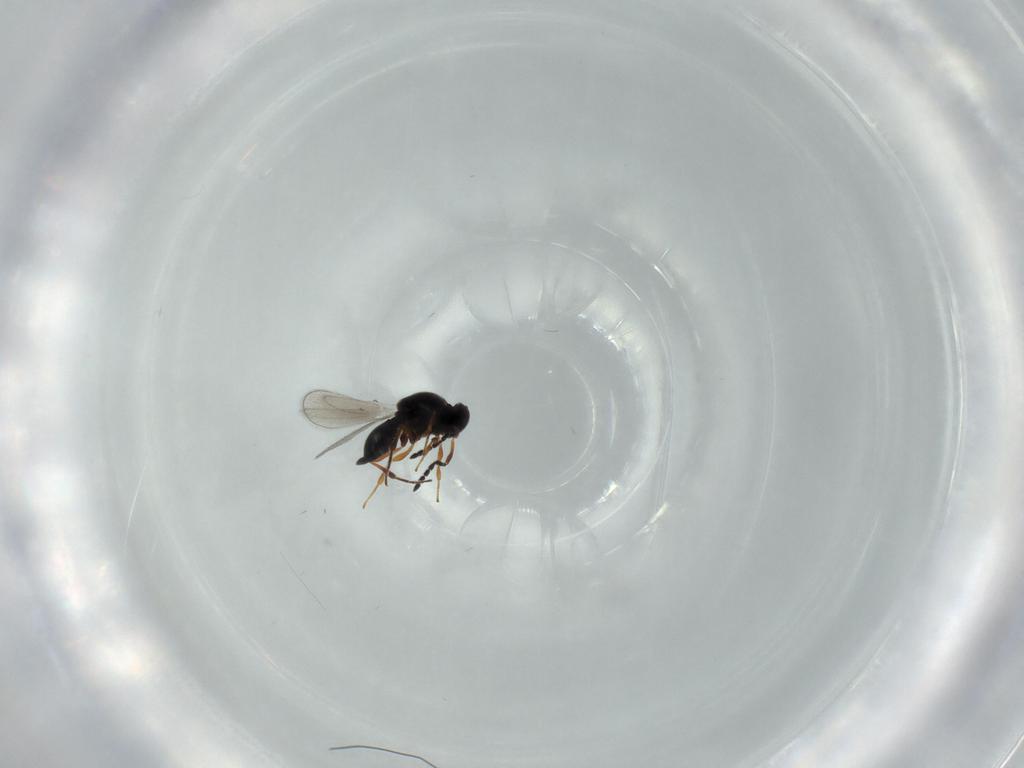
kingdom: Animalia
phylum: Arthropoda
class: Insecta
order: Hymenoptera
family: Platygastridae
